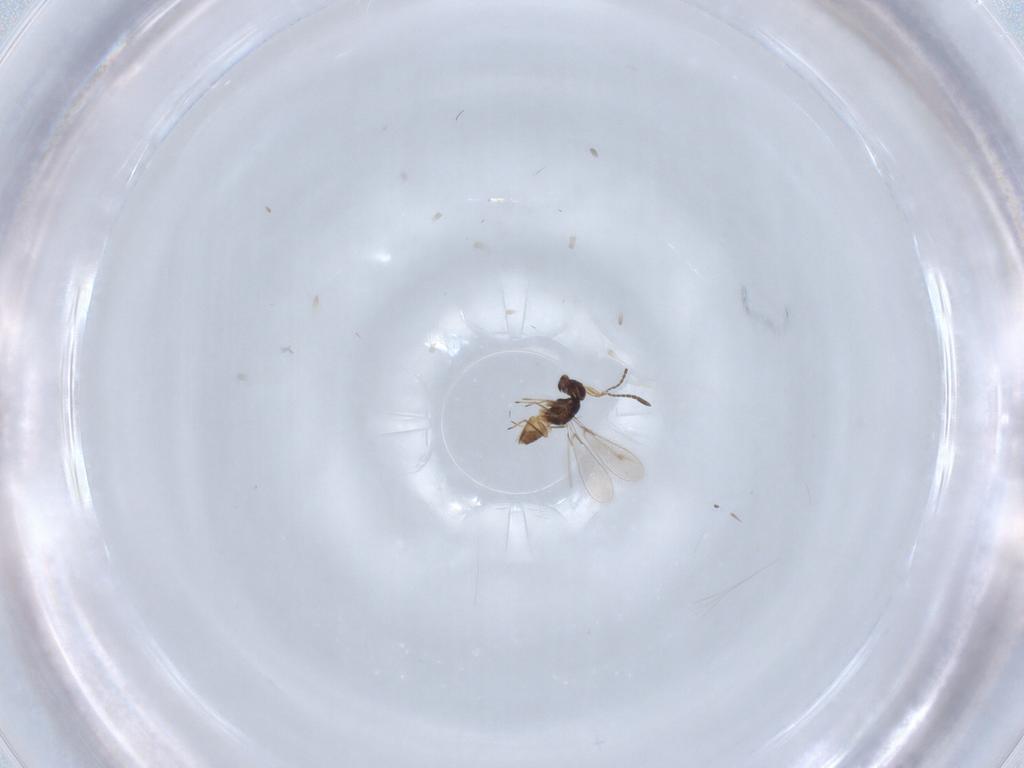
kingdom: Animalia
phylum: Arthropoda
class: Insecta
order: Hymenoptera
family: Mymaridae
